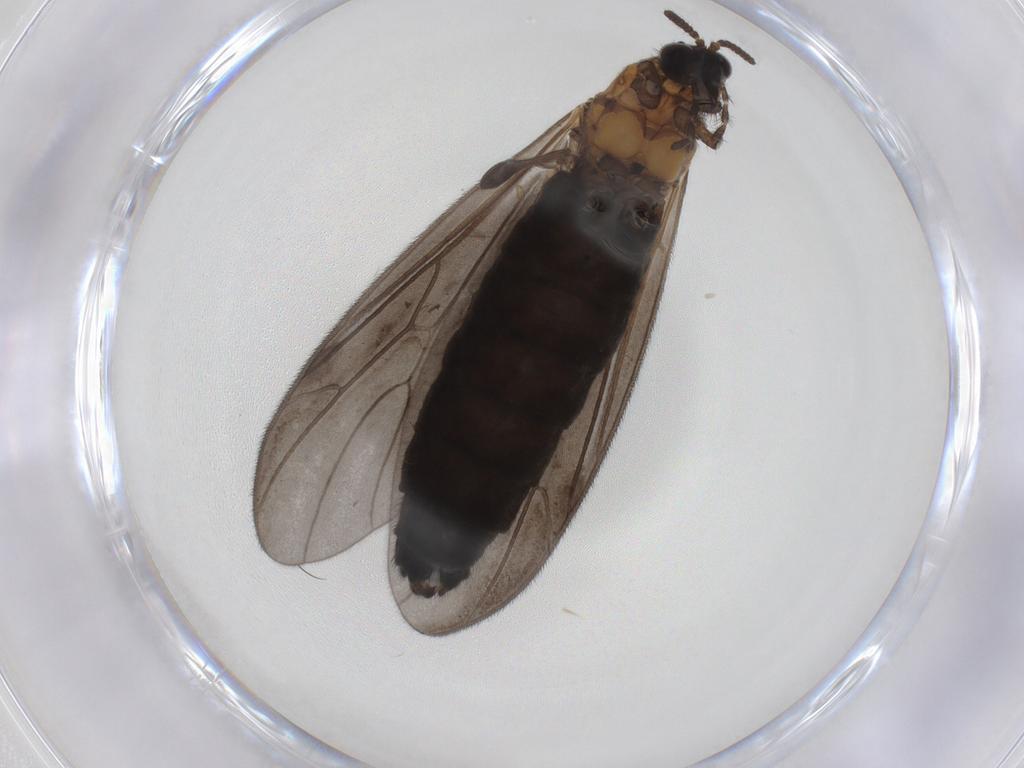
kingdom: Animalia
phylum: Arthropoda
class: Insecta
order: Diptera
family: Bibionidae
